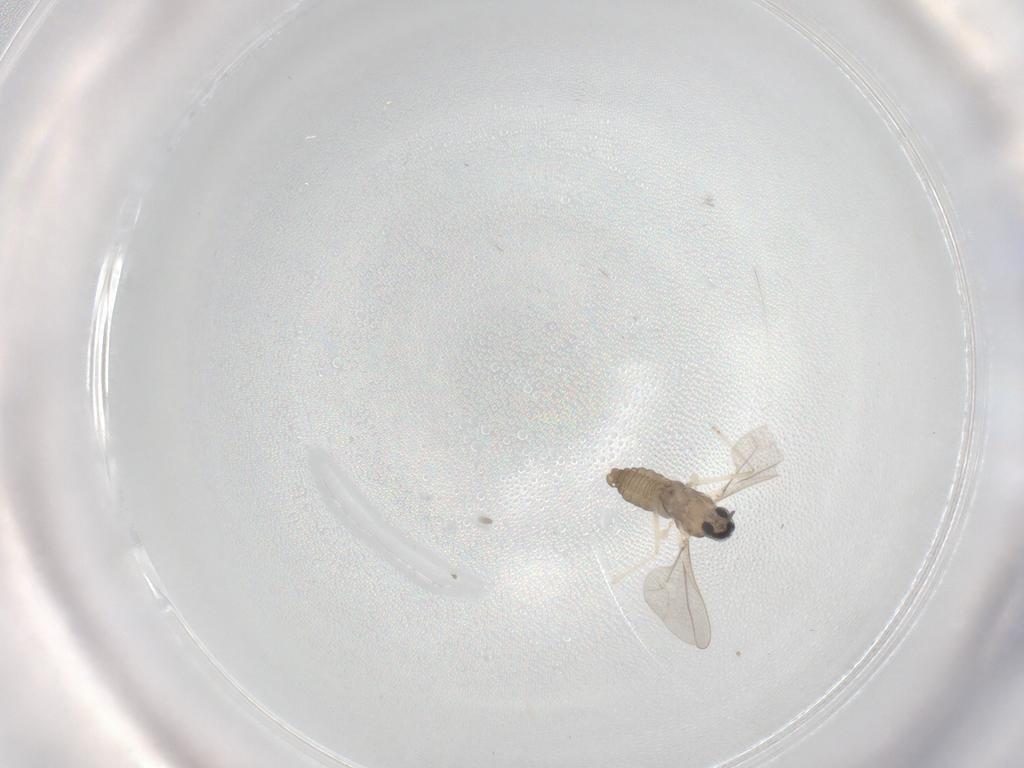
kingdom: Animalia
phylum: Arthropoda
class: Insecta
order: Diptera
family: Cecidomyiidae
